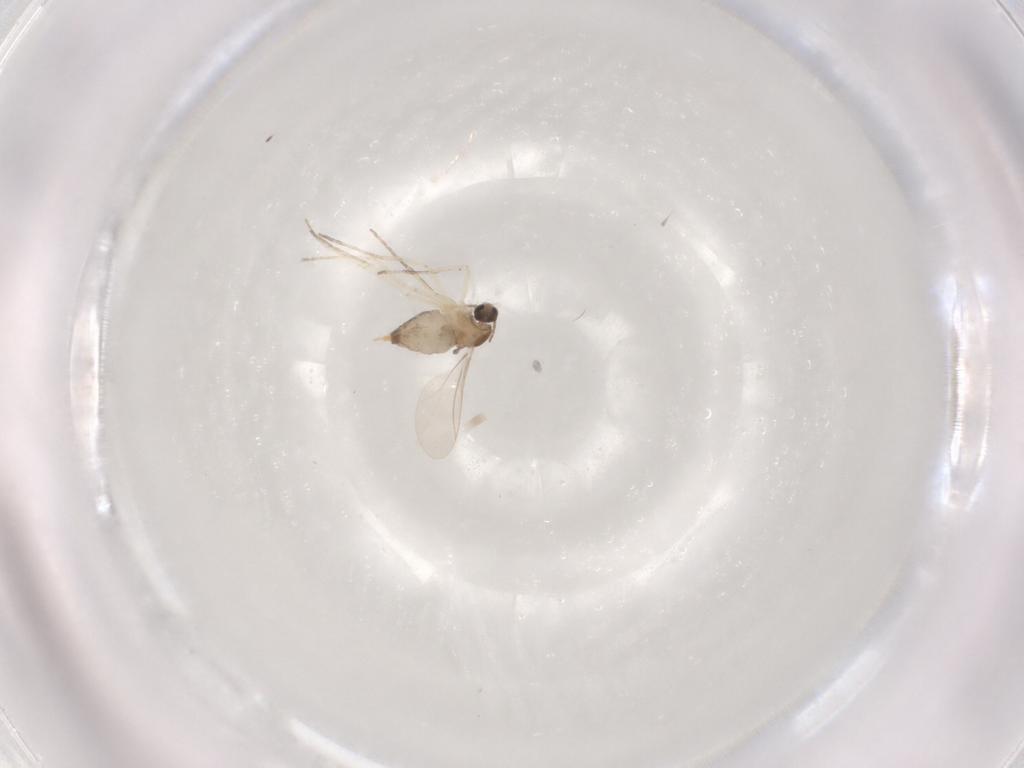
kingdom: Animalia
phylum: Arthropoda
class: Insecta
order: Diptera
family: Cecidomyiidae
